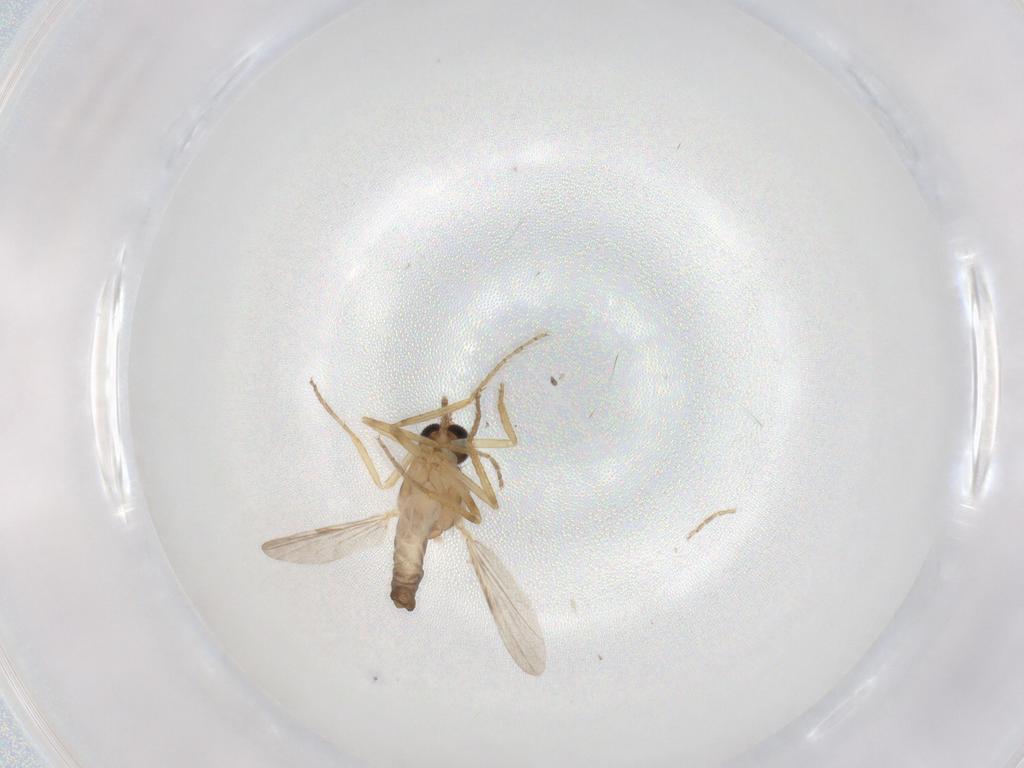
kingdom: Animalia
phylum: Arthropoda
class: Insecta
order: Diptera
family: Ceratopogonidae
